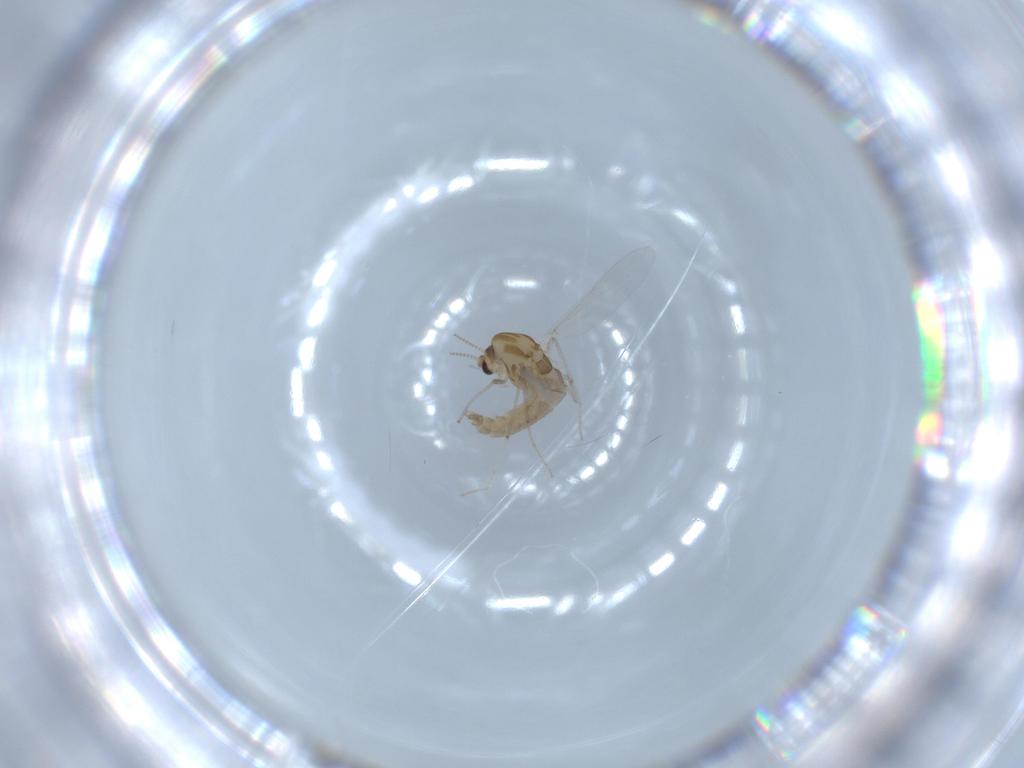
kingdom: Animalia
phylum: Arthropoda
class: Insecta
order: Diptera
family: Chironomidae
